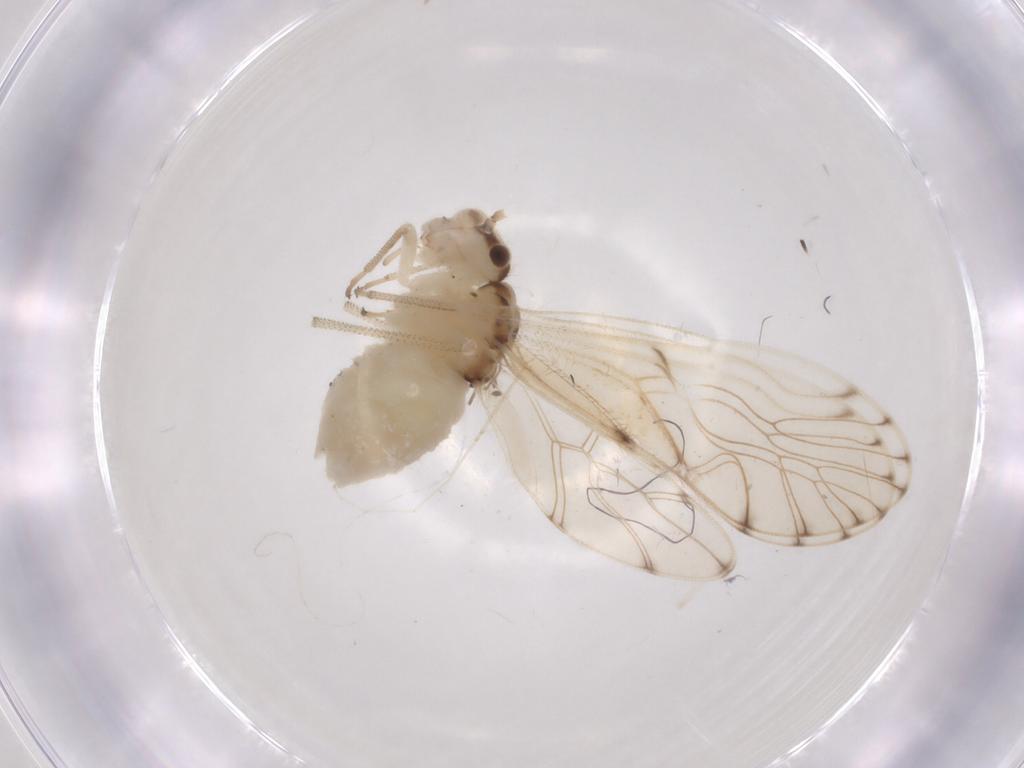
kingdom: Animalia
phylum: Arthropoda
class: Insecta
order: Psocodea
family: Philotarsidae
